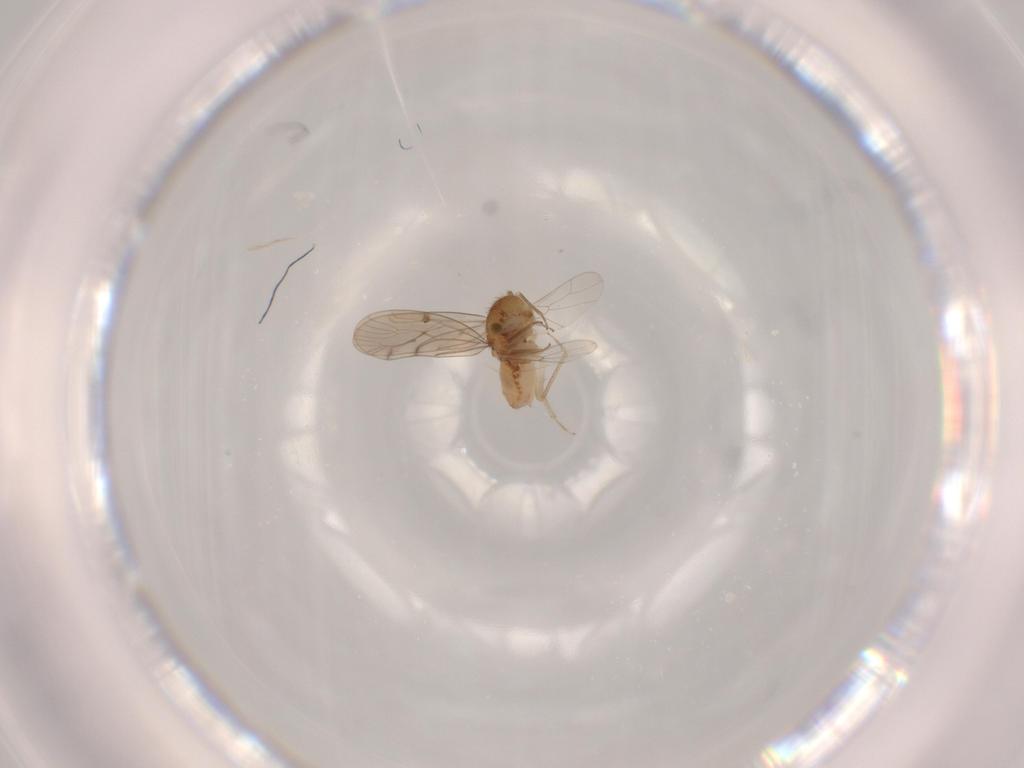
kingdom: Animalia
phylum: Arthropoda
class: Insecta
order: Psocodea
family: Ectopsocidae
